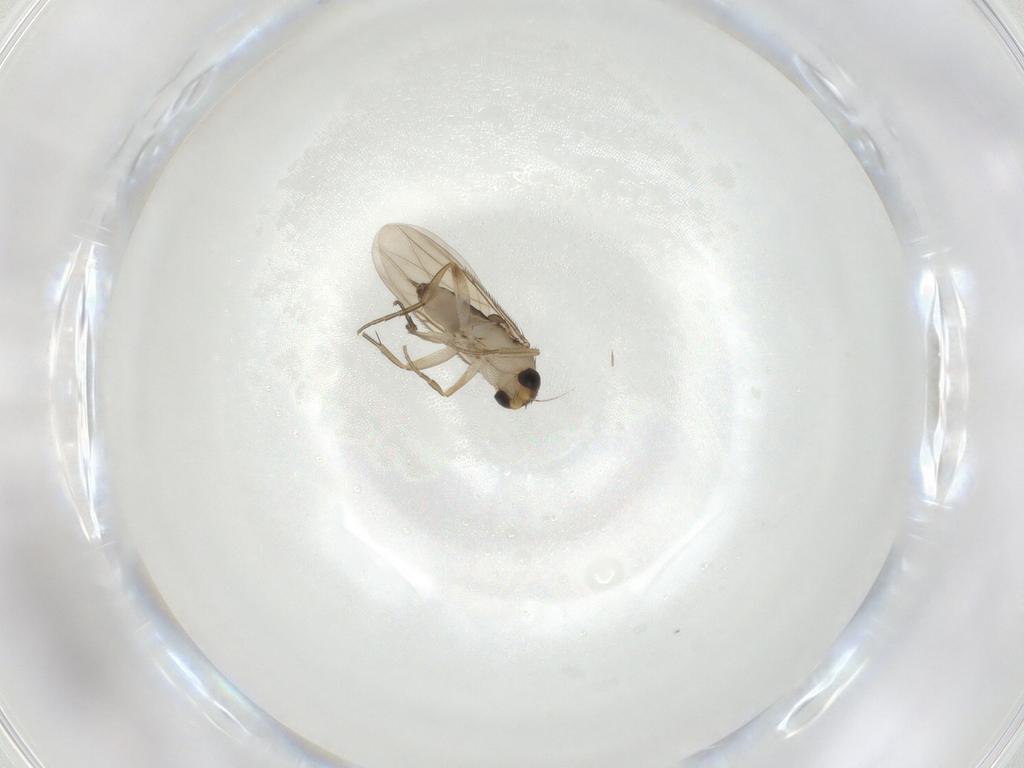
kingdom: Animalia
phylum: Arthropoda
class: Insecta
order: Diptera
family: Phoridae
